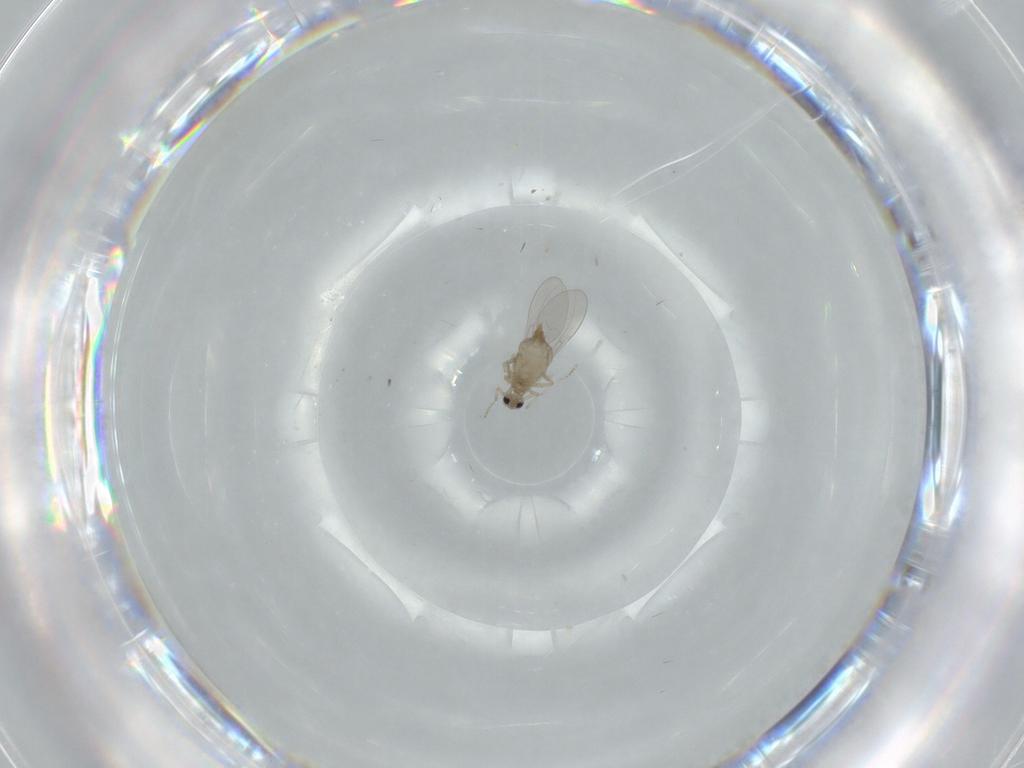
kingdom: Animalia
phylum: Arthropoda
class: Insecta
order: Diptera
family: Cecidomyiidae
